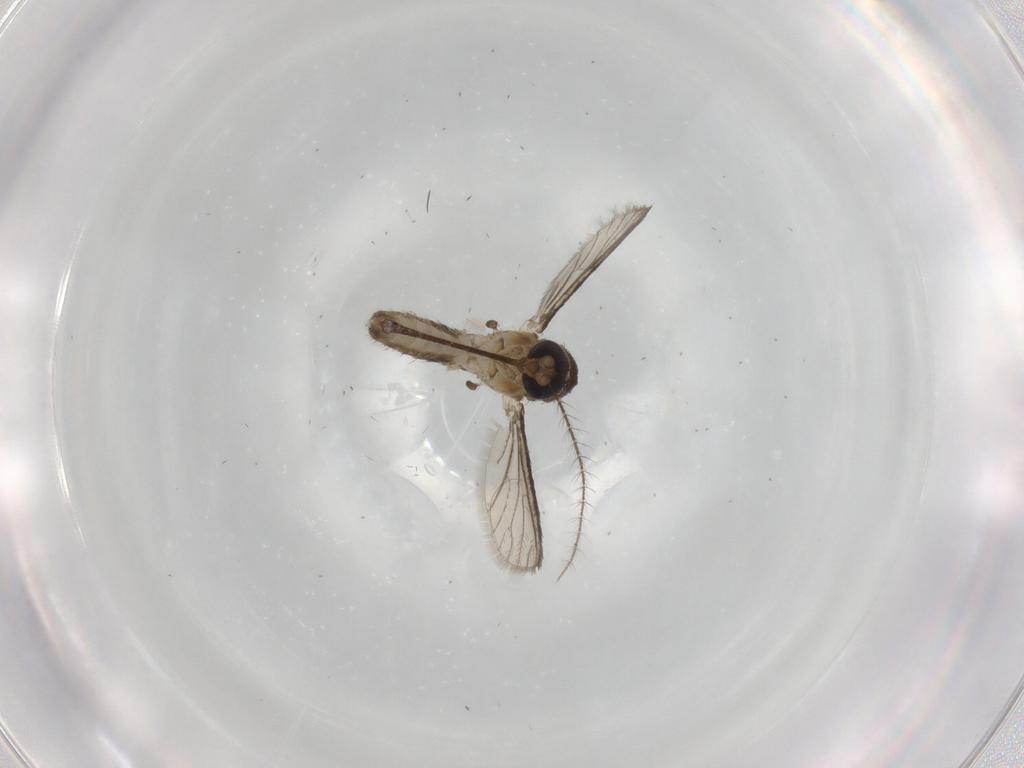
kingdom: Animalia
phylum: Arthropoda
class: Insecta
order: Diptera
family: Phoridae
